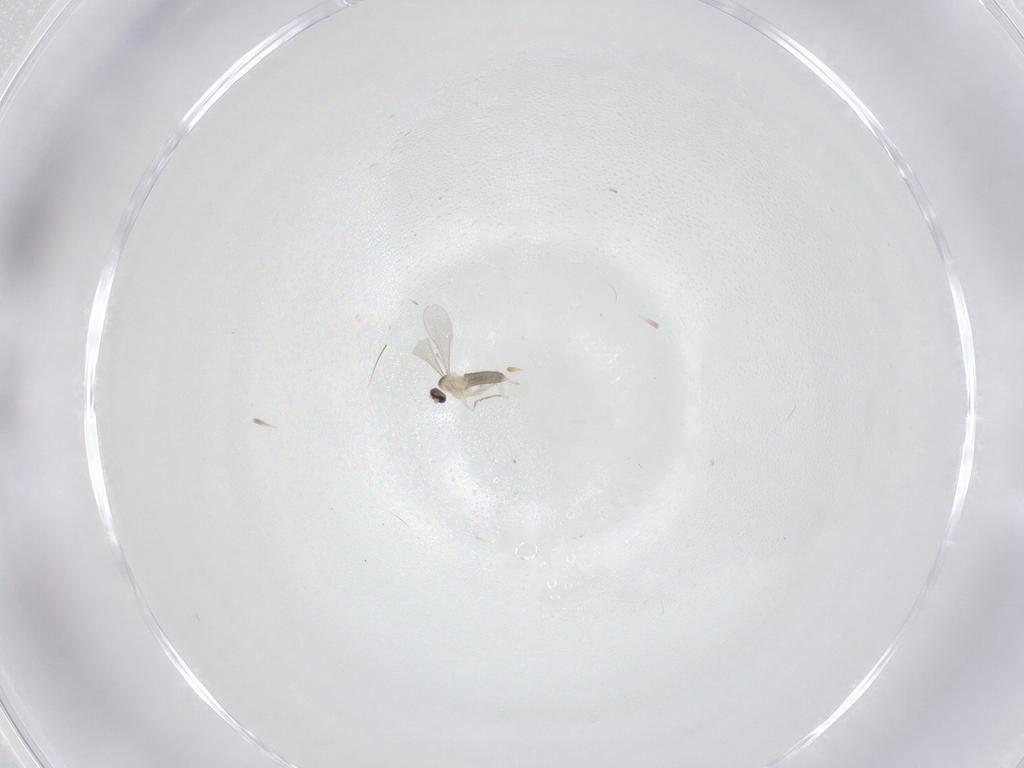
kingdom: Animalia
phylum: Arthropoda
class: Insecta
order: Diptera
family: Cecidomyiidae
